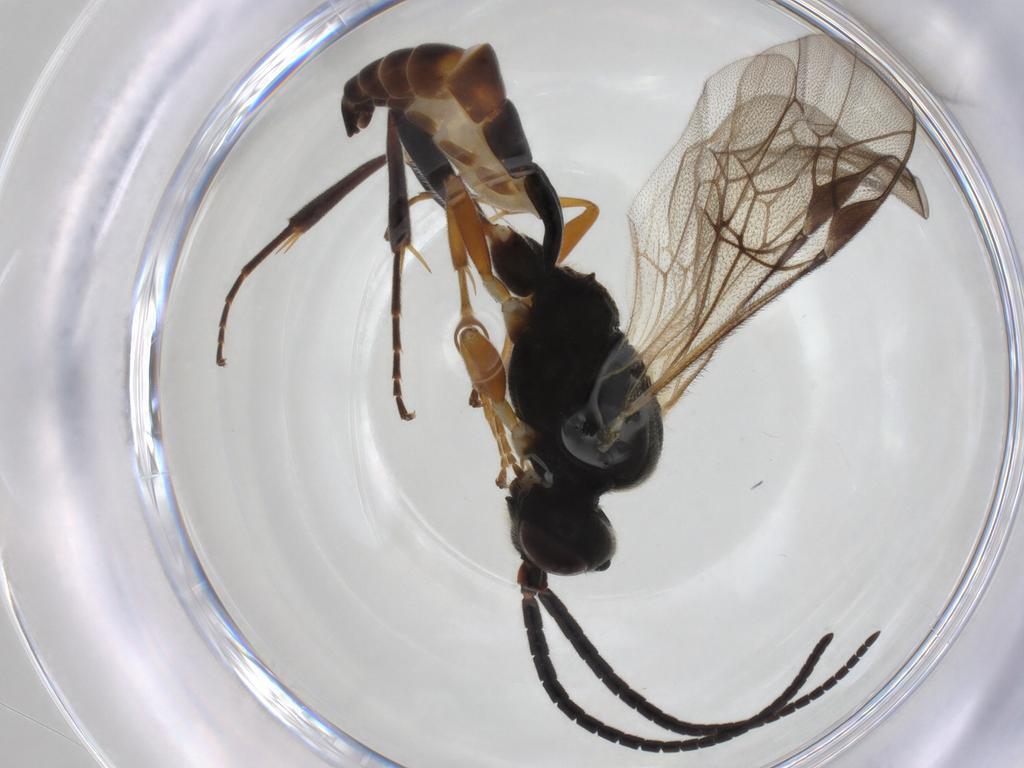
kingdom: Animalia
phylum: Arthropoda
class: Insecta
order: Hymenoptera
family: Ichneumonidae
